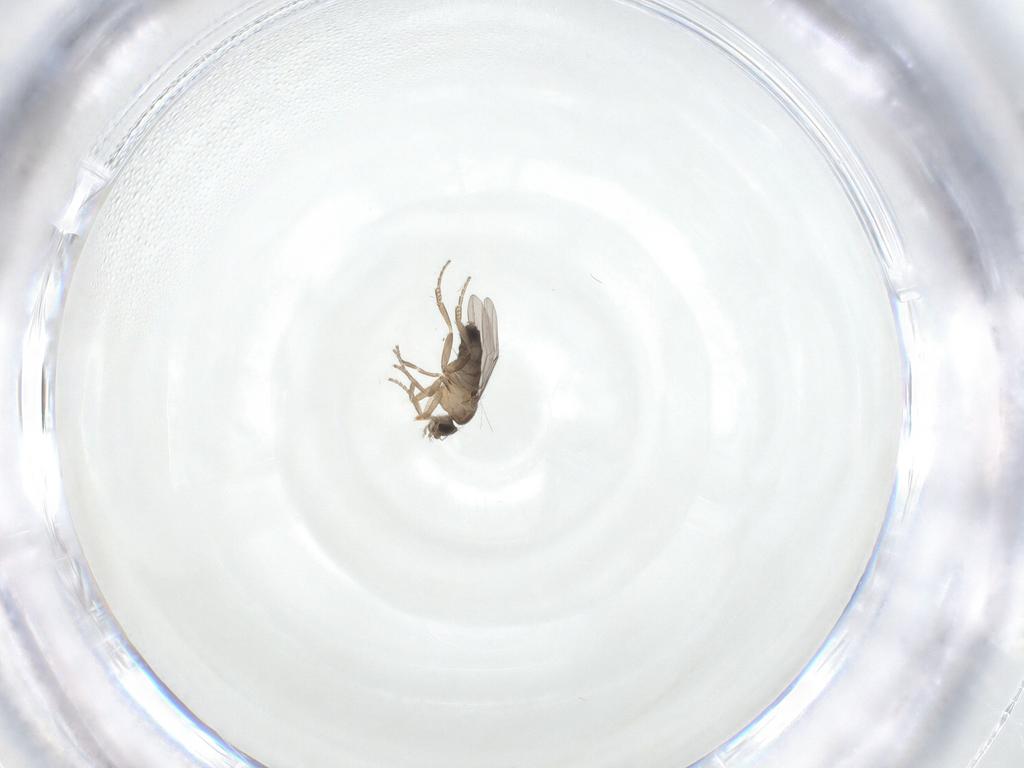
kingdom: Animalia
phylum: Arthropoda
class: Insecta
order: Diptera
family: Phoridae
